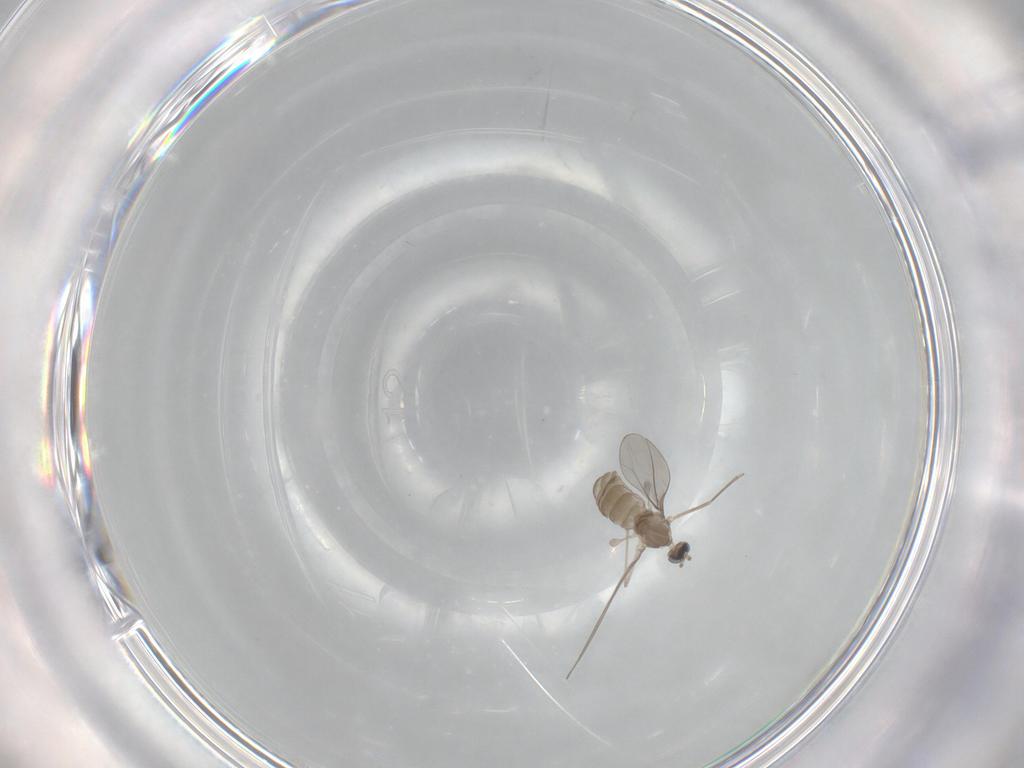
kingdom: Animalia
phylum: Arthropoda
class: Insecta
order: Diptera
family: Cecidomyiidae
